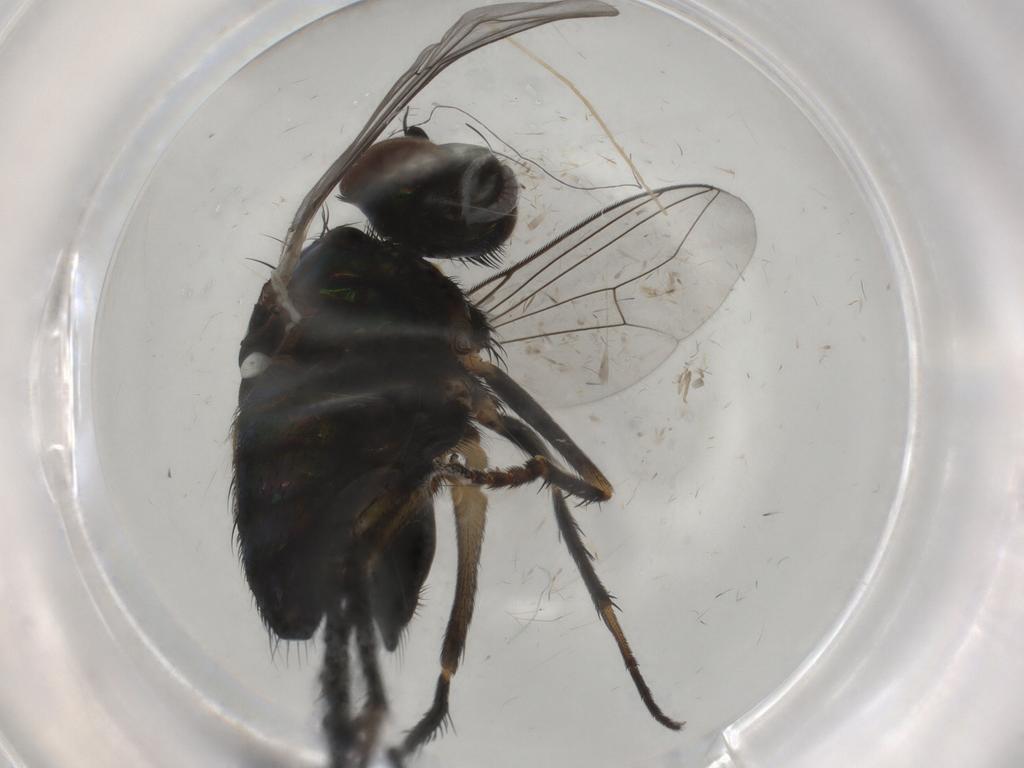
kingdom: Animalia
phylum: Arthropoda
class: Insecta
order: Diptera
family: Dolichopodidae
